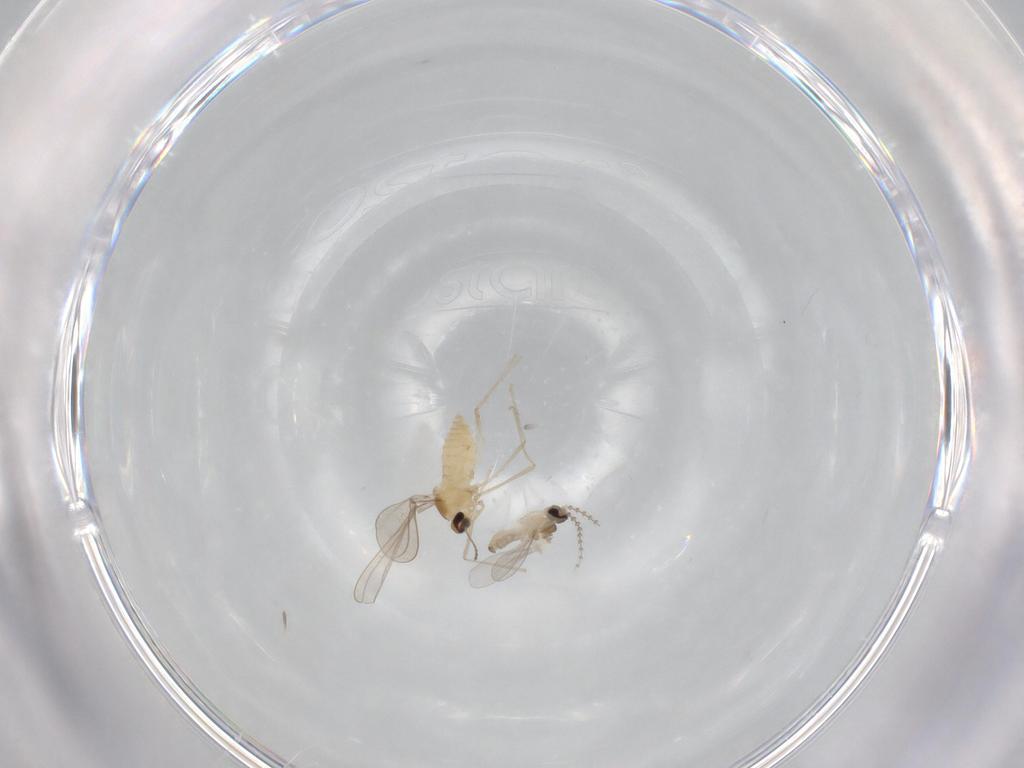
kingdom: Animalia
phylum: Arthropoda
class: Insecta
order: Diptera
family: Cecidomyiidae
